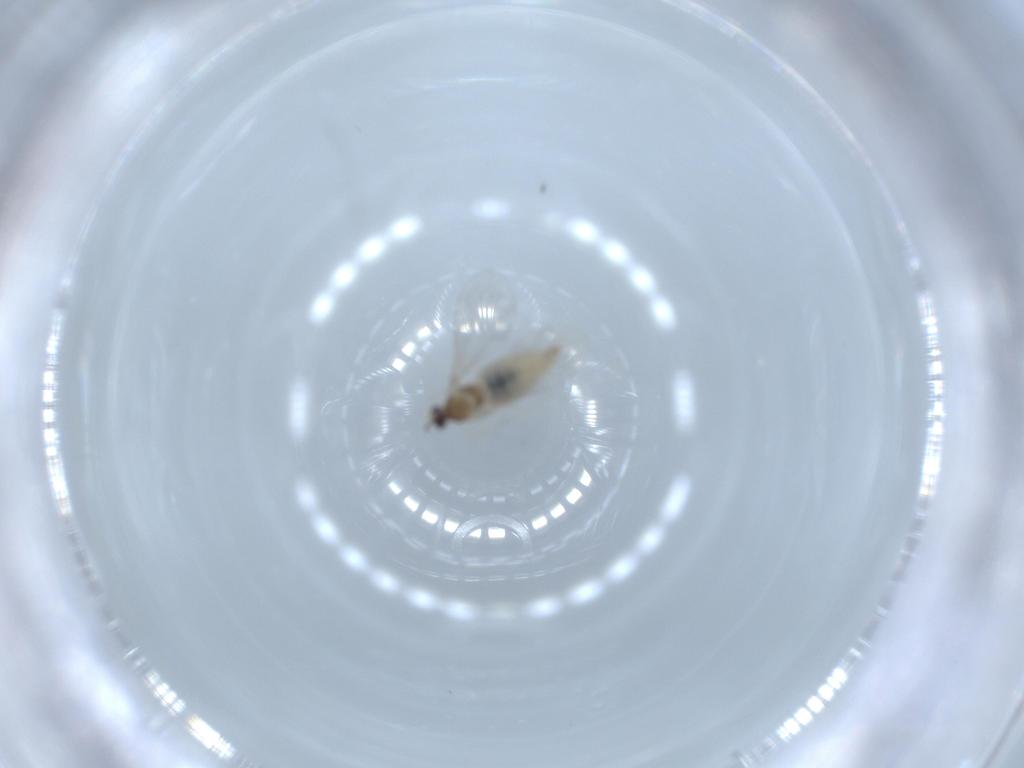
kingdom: Animalia
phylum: Arthropoda
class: Insecta
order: Diptera
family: Cecidomyiidae
